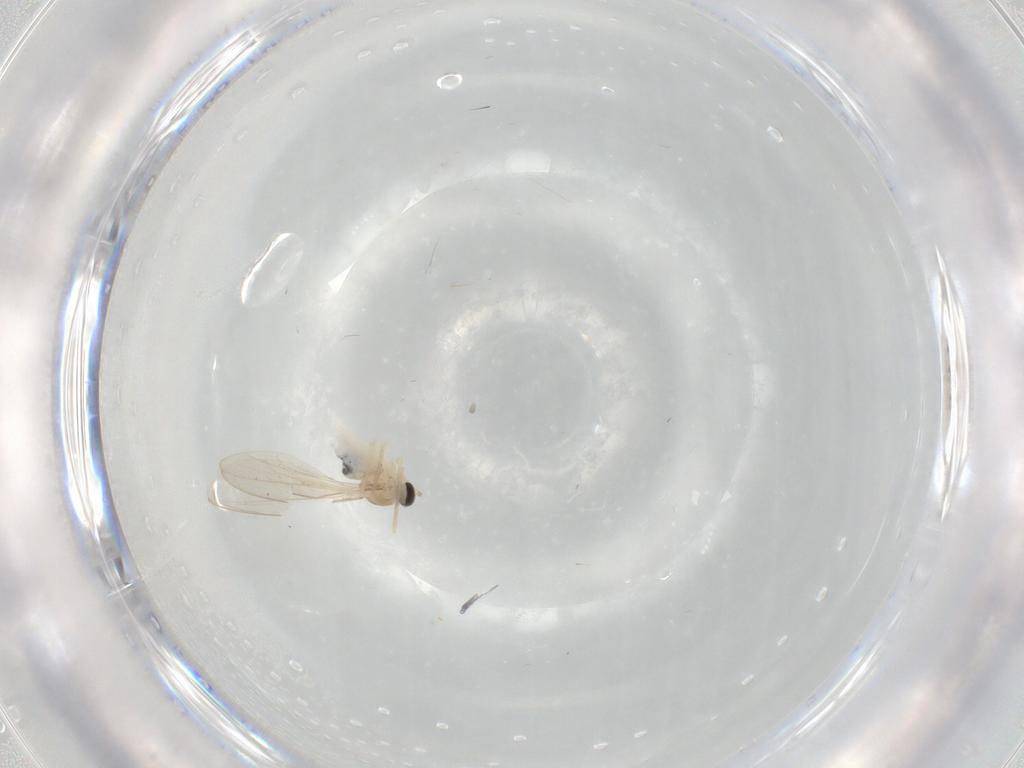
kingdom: Animalia
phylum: Arthropoda
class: Insecta
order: Diptera
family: Cecidomyiidae
